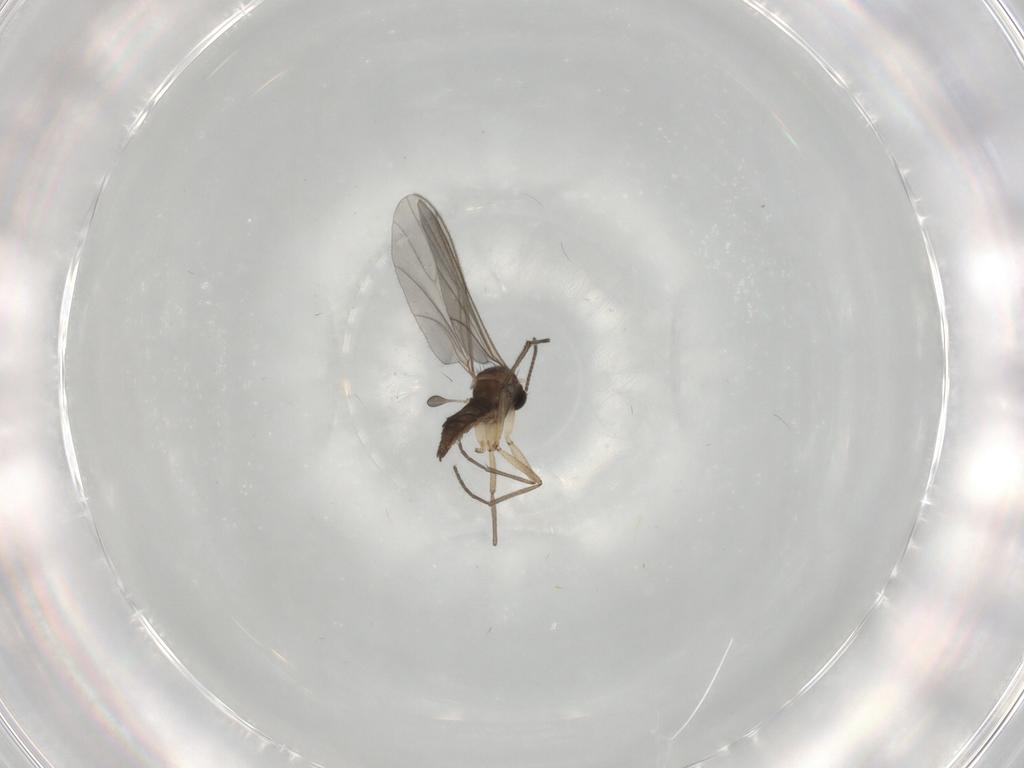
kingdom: Animalia
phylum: Arthropoda
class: Insecta
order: Diptera
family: Sciaridae
